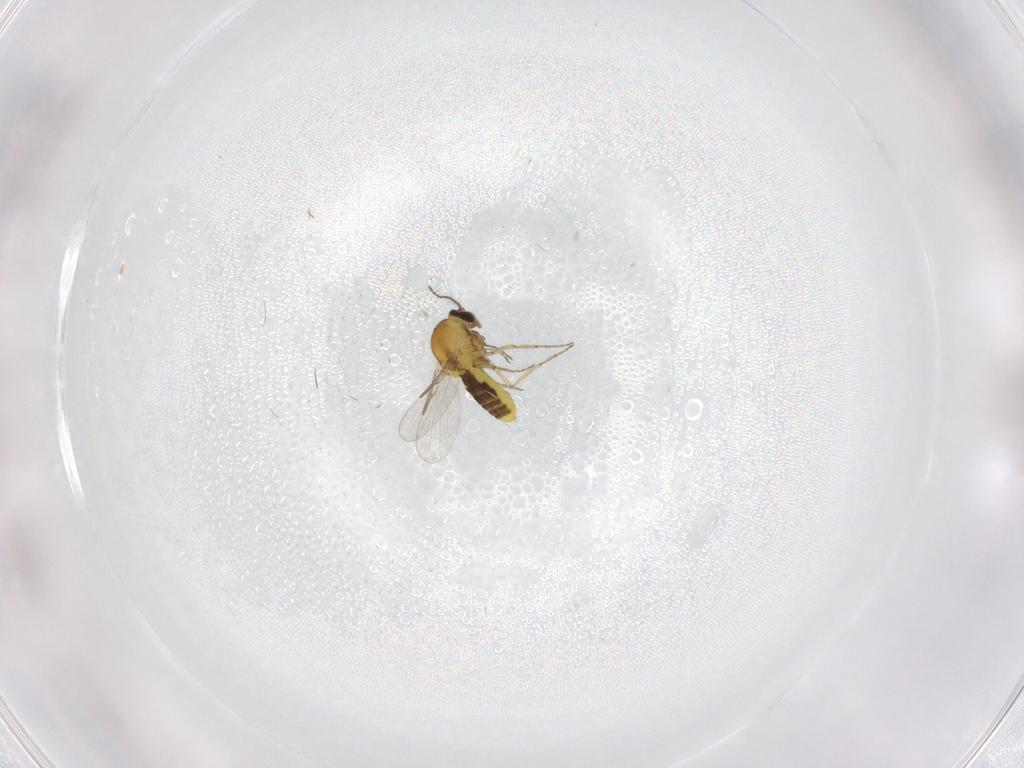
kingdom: Animalia
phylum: Arthropoda
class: Insecta
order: Diptera
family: Ceratopogonidae
